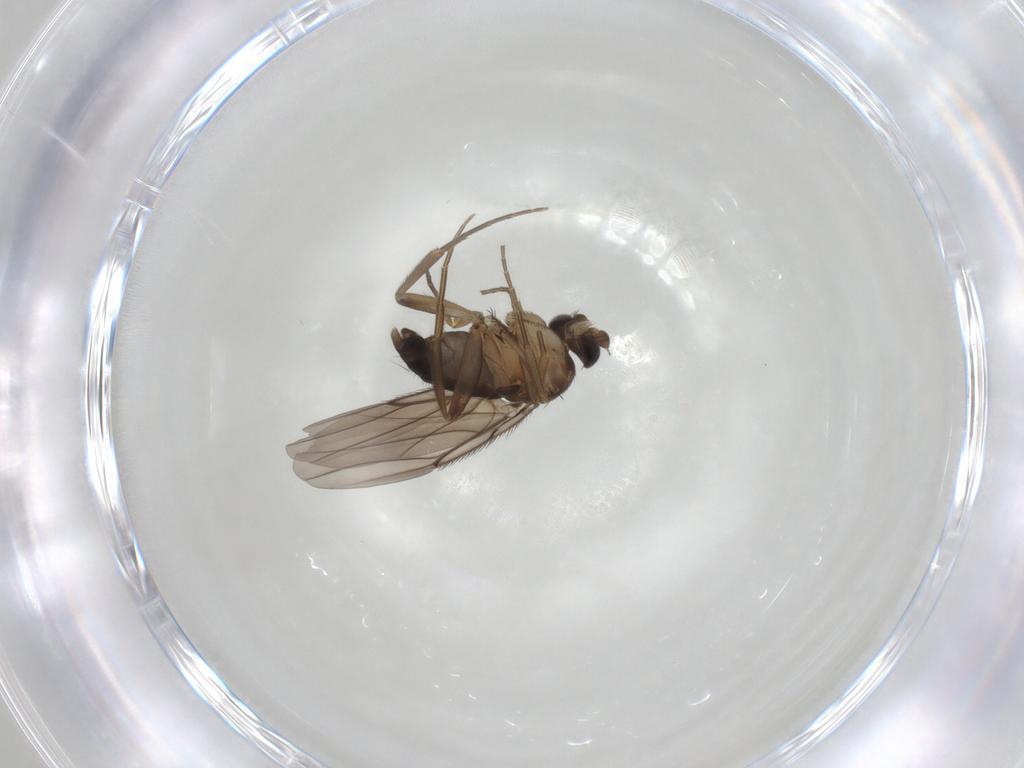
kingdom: Animalia
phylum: Arthropoda
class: Insecta
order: Diptera
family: Phoridae
